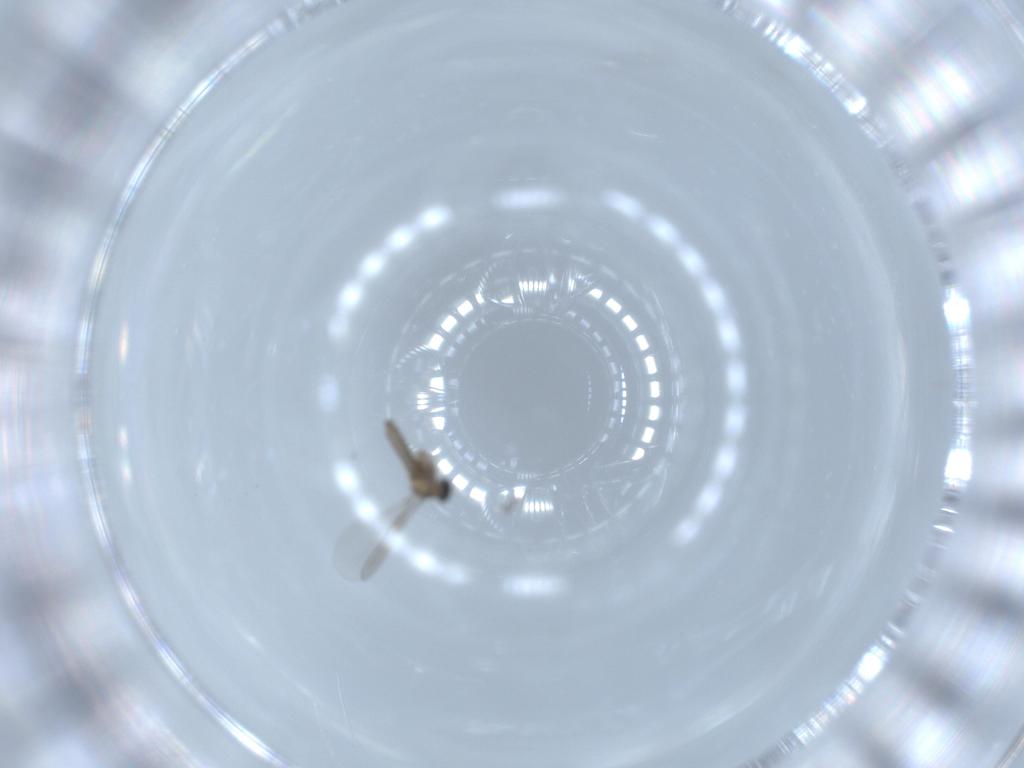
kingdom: Animalia
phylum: Arthropoda
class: Insecta
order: Diptera
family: Cecidomyiidae
